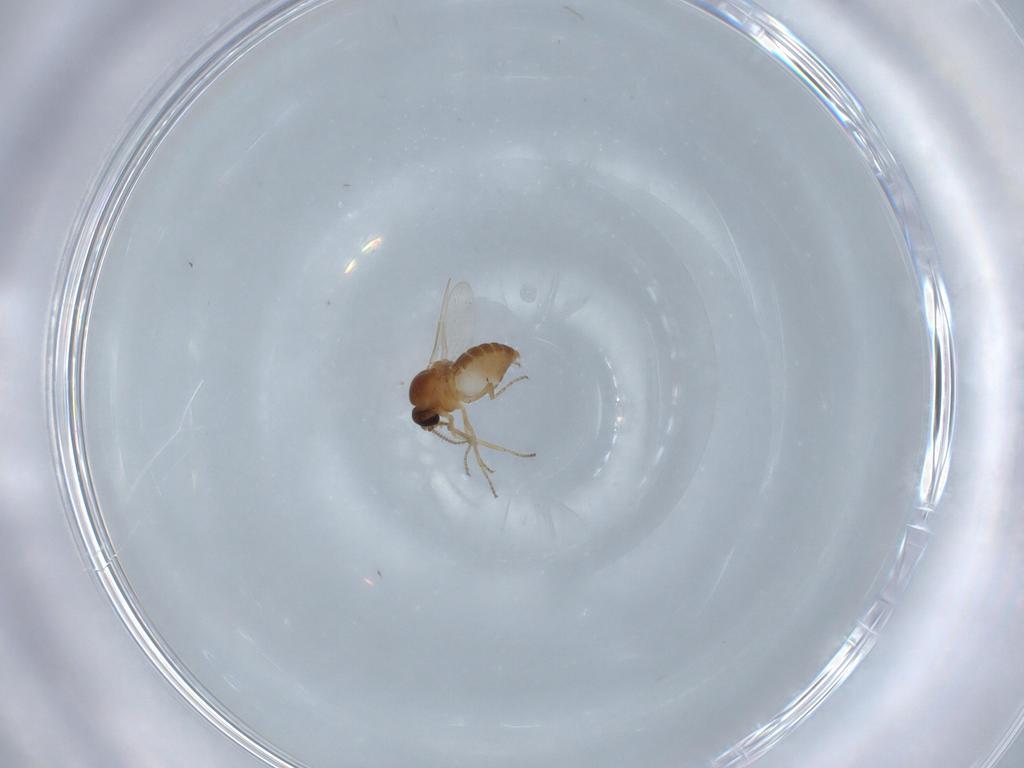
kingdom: Animalia
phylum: Arthropoda
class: Insecta
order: Diptera
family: Ceratopogonidae
